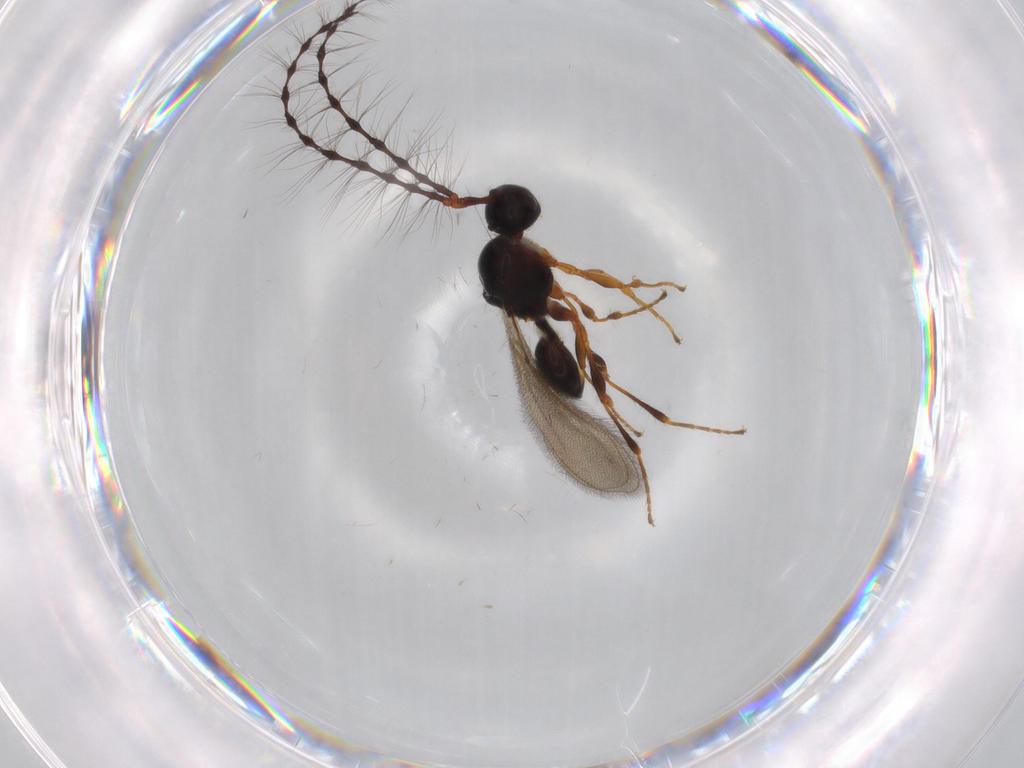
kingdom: Animalia
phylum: Arthropoda
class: Insecta
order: Hymenoptera
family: Diapriidae
